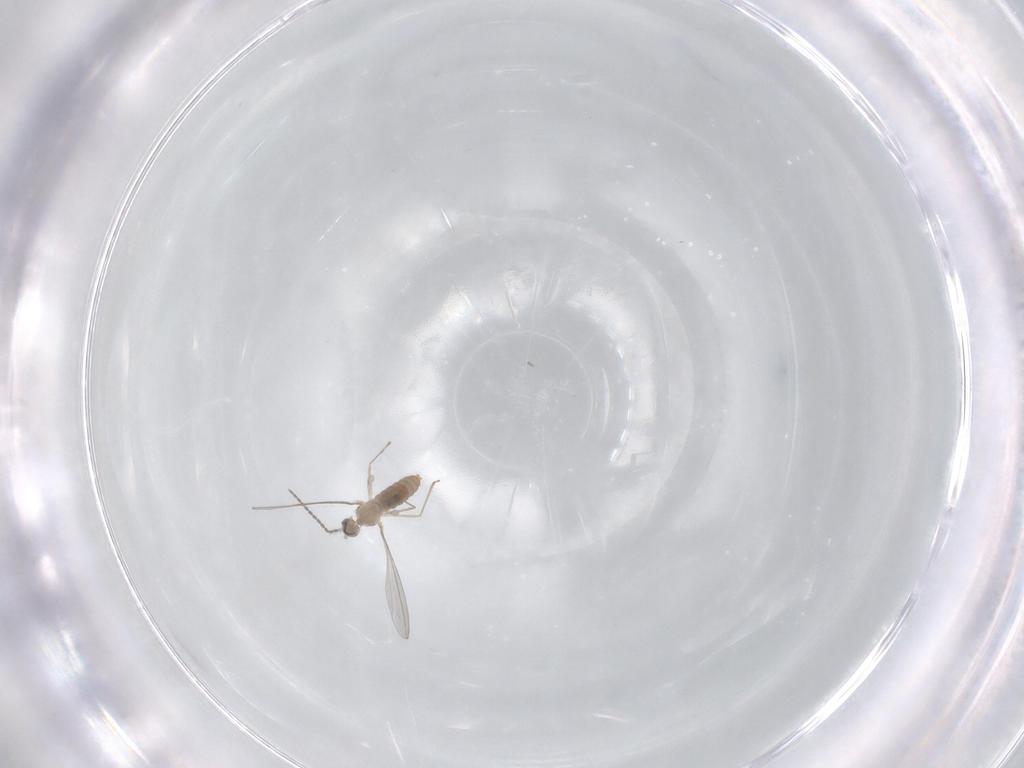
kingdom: Animalia
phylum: Arthropoda
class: Insecta
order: Diptera
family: Cecidomyiidae
